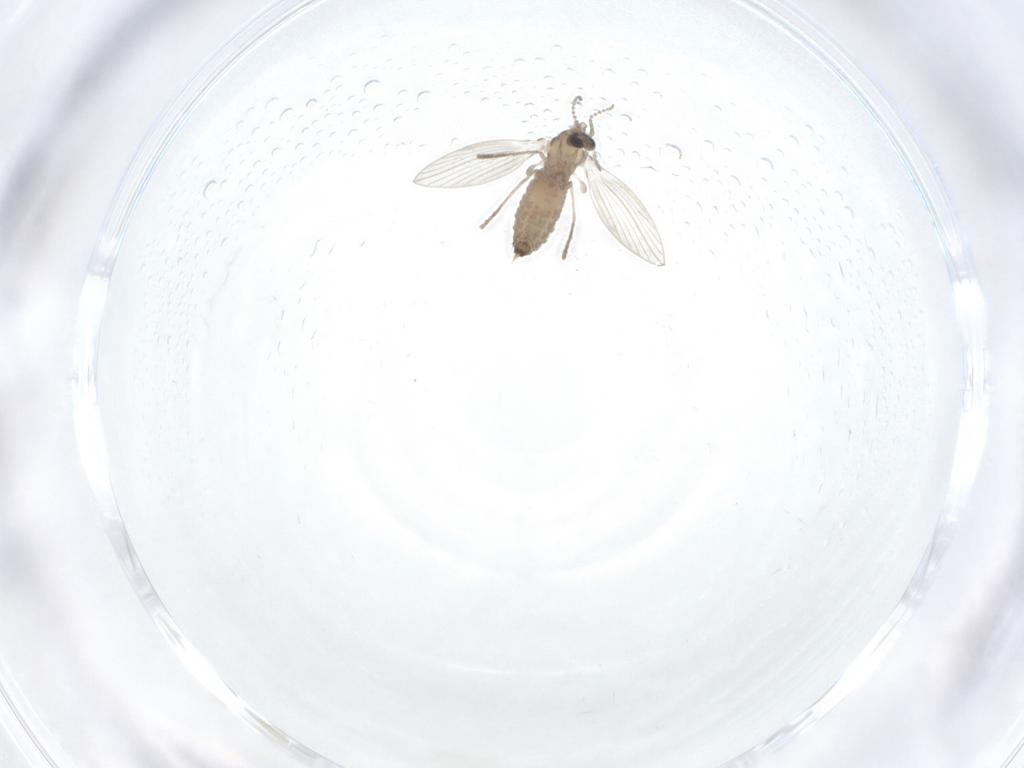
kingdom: Animalia
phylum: Arthropoda
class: Insecta
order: Diptera
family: Psychodidae
